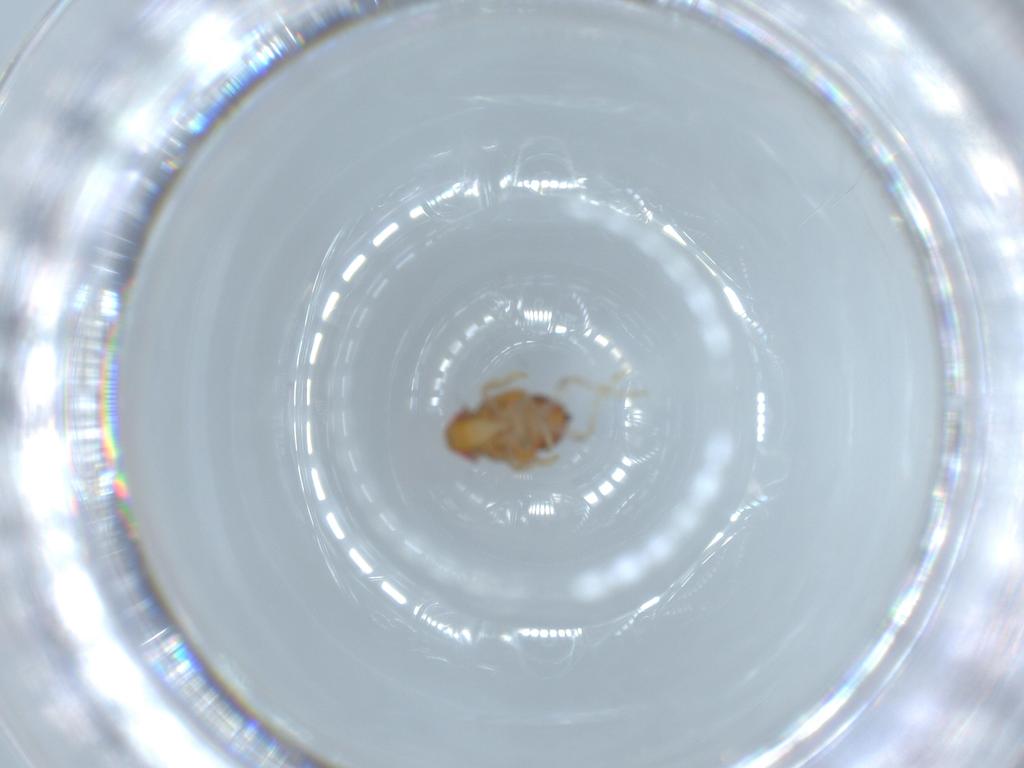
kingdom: Animalia
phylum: Arthropoda
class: Insecta
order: Hemiptera
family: Issidae
